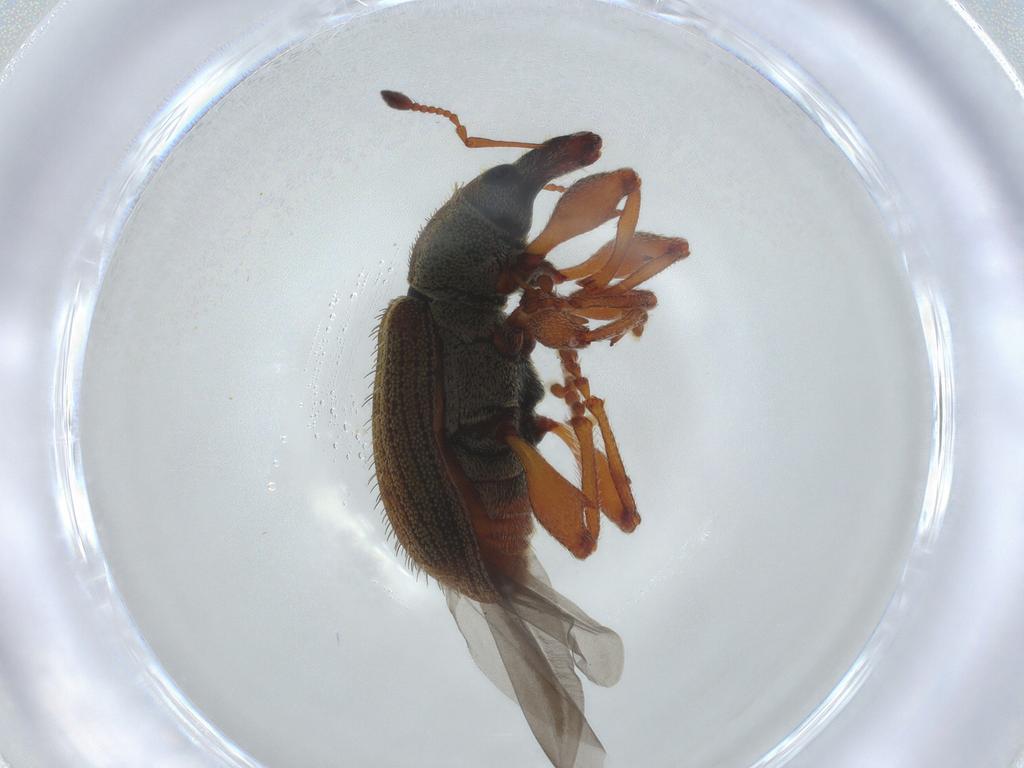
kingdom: Animalia
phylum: Arthropoda
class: Insecta
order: Coleoptera
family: Curculionidae
